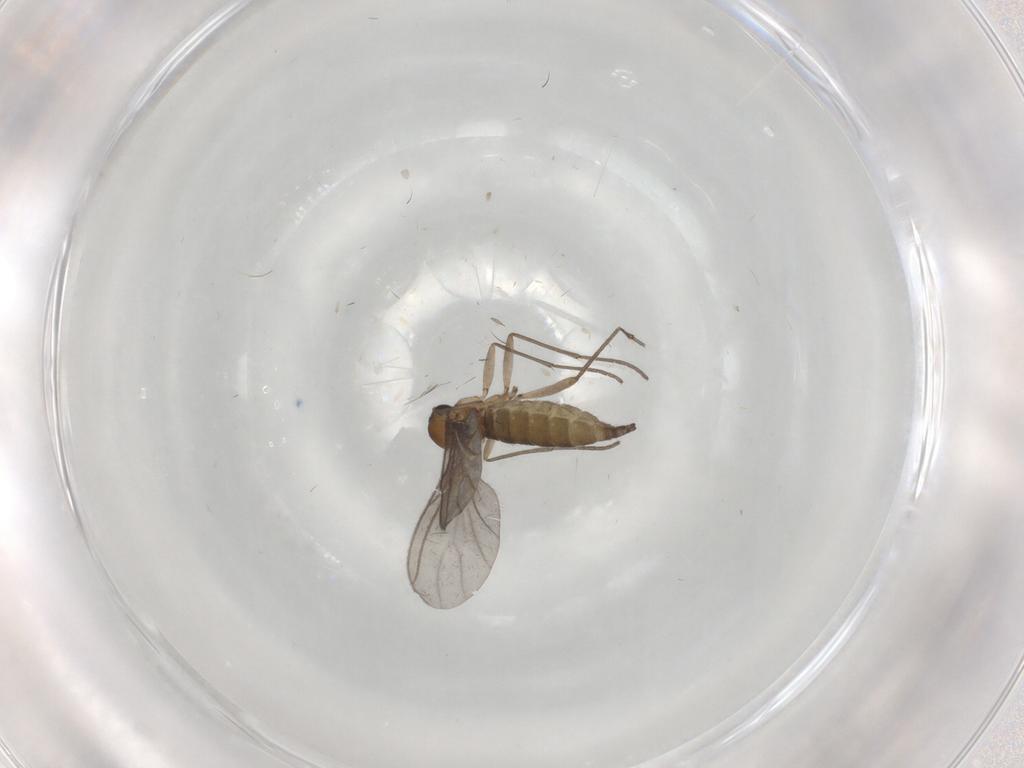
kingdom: Animalia
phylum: Arthropoda
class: Insecta
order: Diptera
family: Sciaridae
